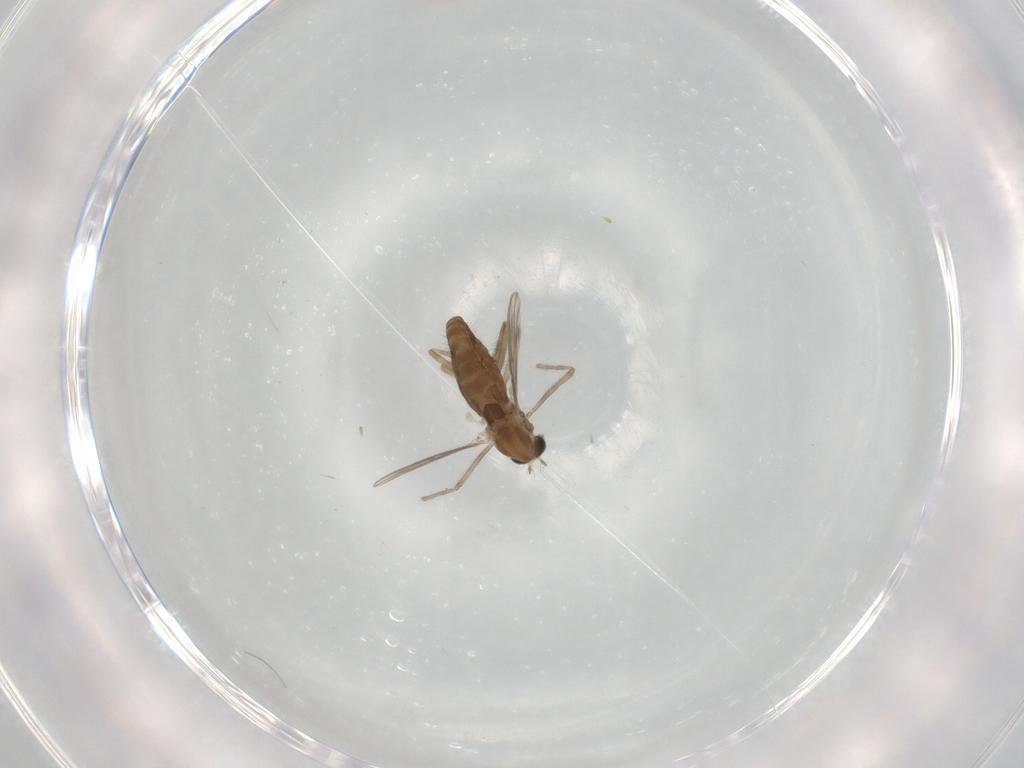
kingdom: Animalia
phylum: Arthropoda
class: Insecta
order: Diptera
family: Chironomidae
